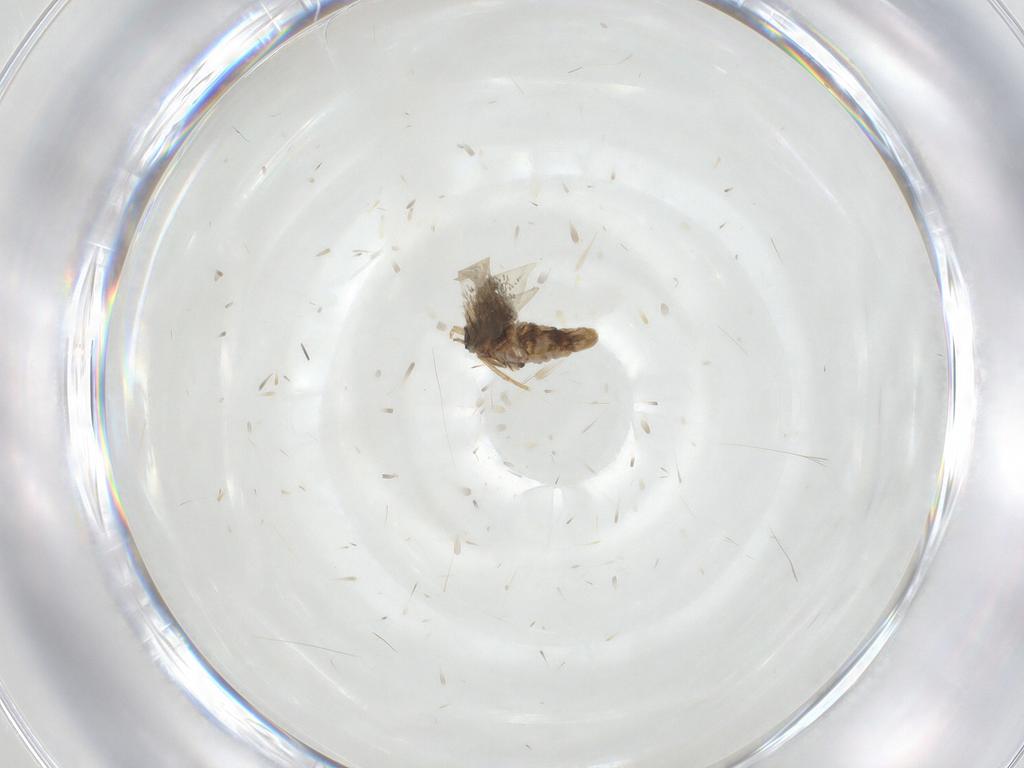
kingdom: Animalia
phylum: Arthropoda
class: Insecta
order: Lepidoptera
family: Nepticulidae
